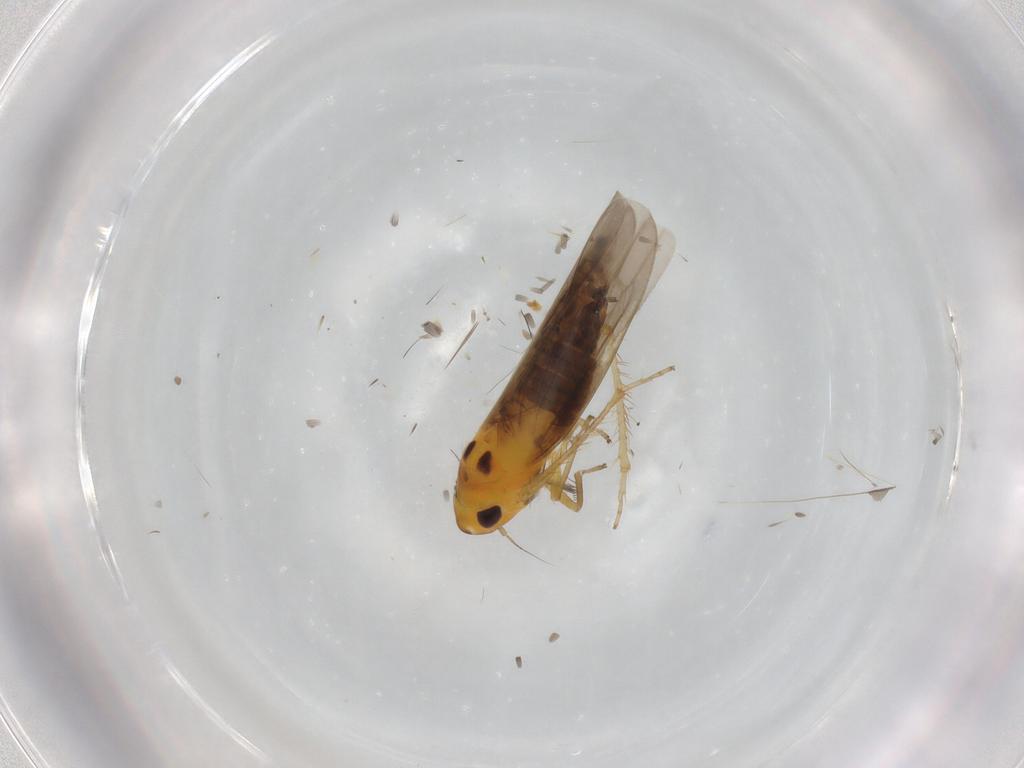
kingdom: Animalia
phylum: Arthropoda
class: Insecta
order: Hemiptera
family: Cicadellidae
